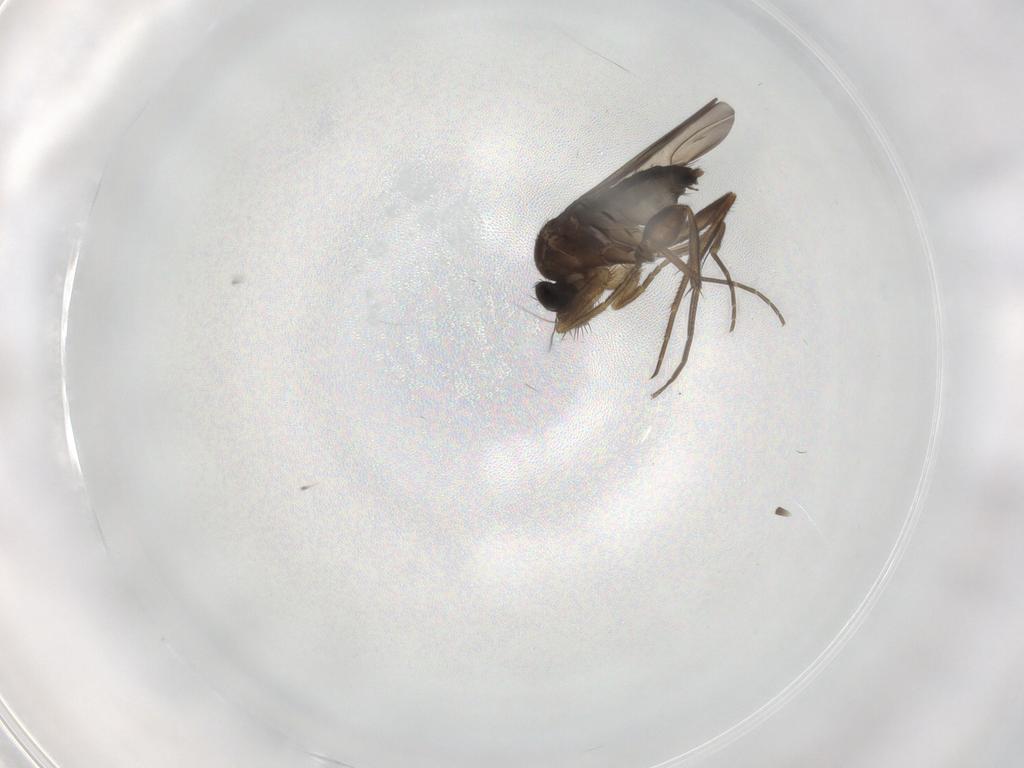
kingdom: Animalia
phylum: Arthropoda
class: Insecta
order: Diptera
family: Phoridae
